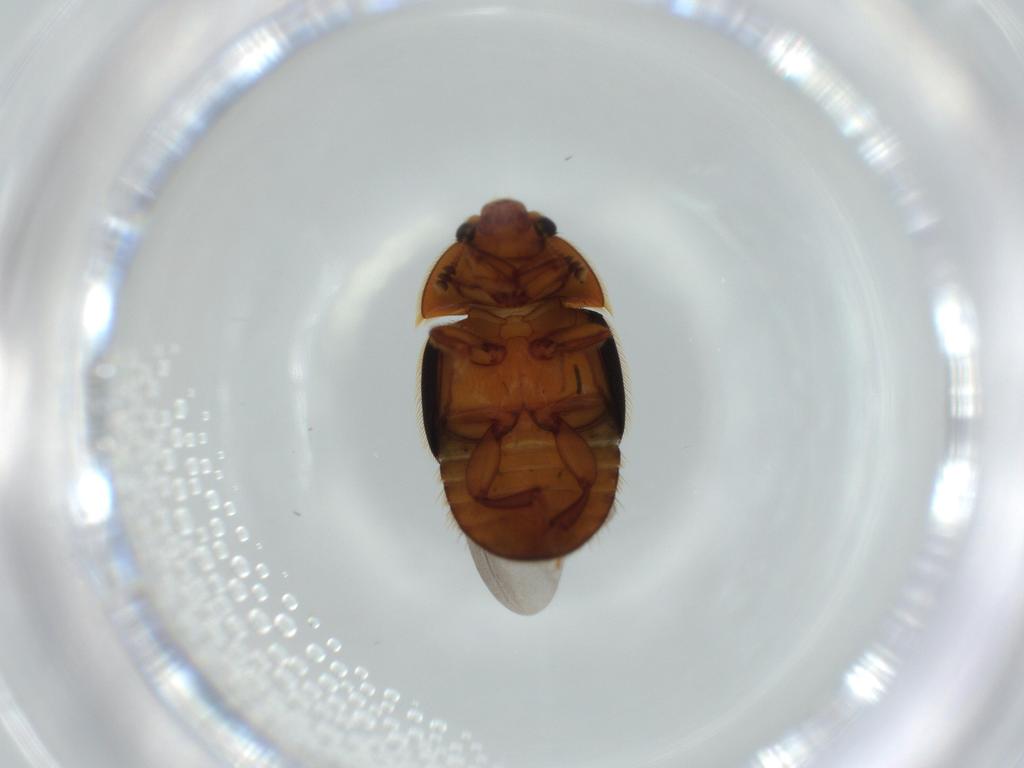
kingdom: Animalia
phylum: Arthropoda
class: Insecta
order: Coleoptera
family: Nitidulidae
